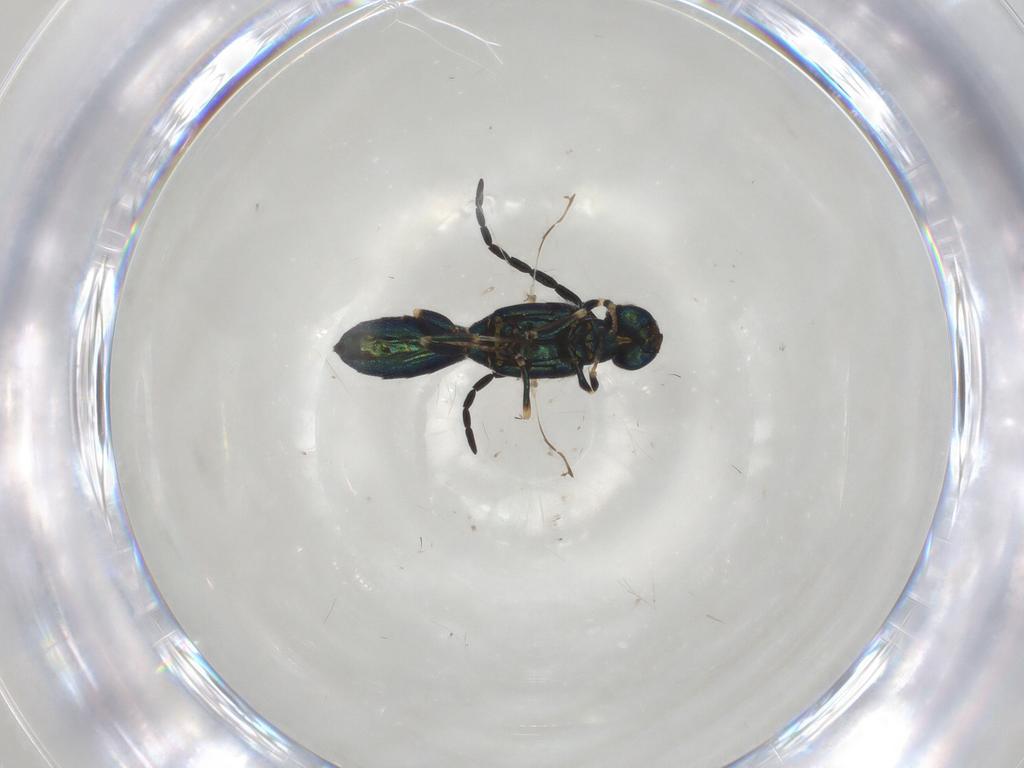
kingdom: Animalia
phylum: Arthropoda
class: Insecta
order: Hymenoptera
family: Eupelmidae
